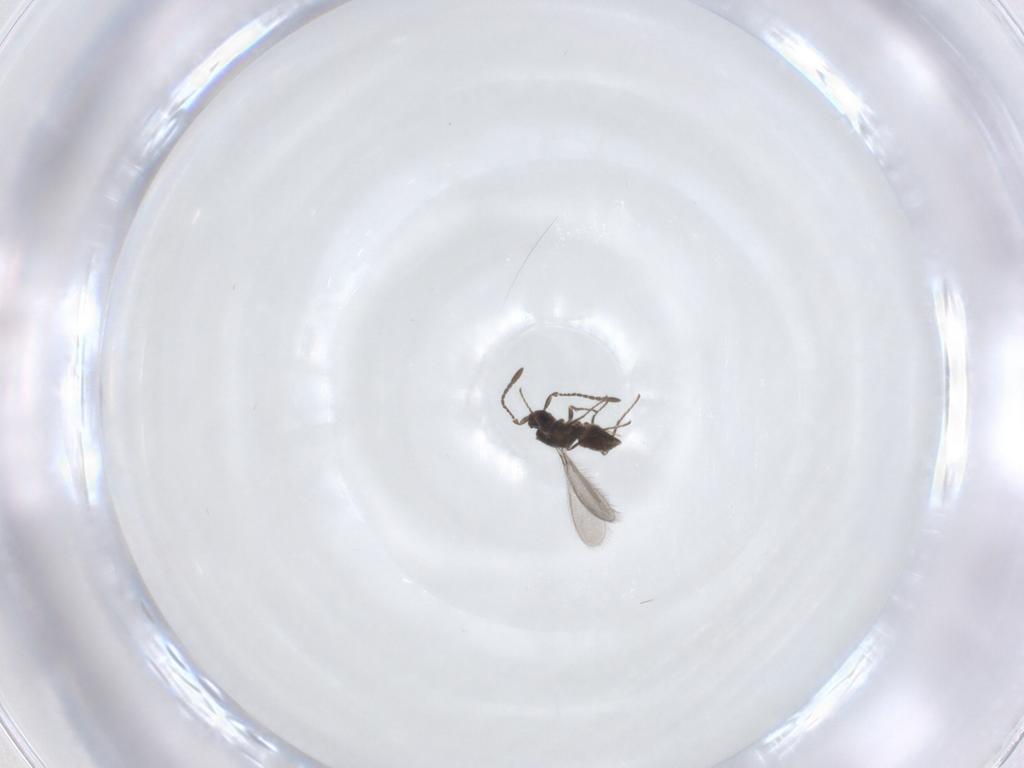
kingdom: Animalia
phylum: Arthropoda
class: Insecta
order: Hymenoptera
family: Mymaridae
